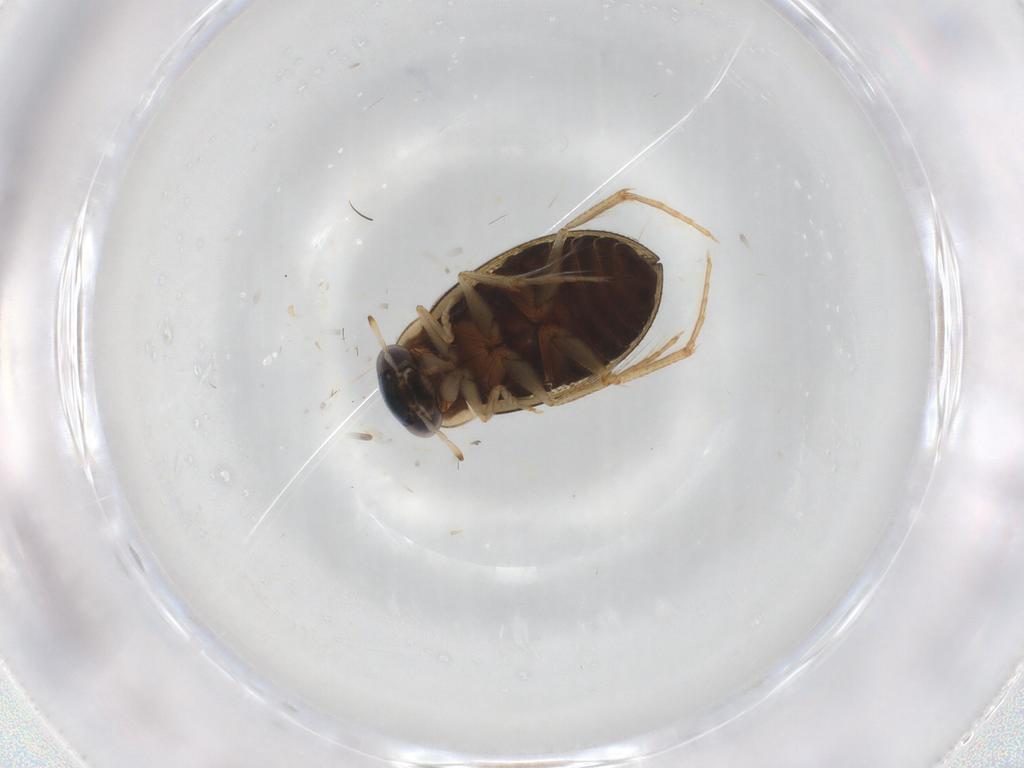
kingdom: Animalia
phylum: Arthropoda
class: Insecta
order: Coleoptera
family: Hydrophilidae
